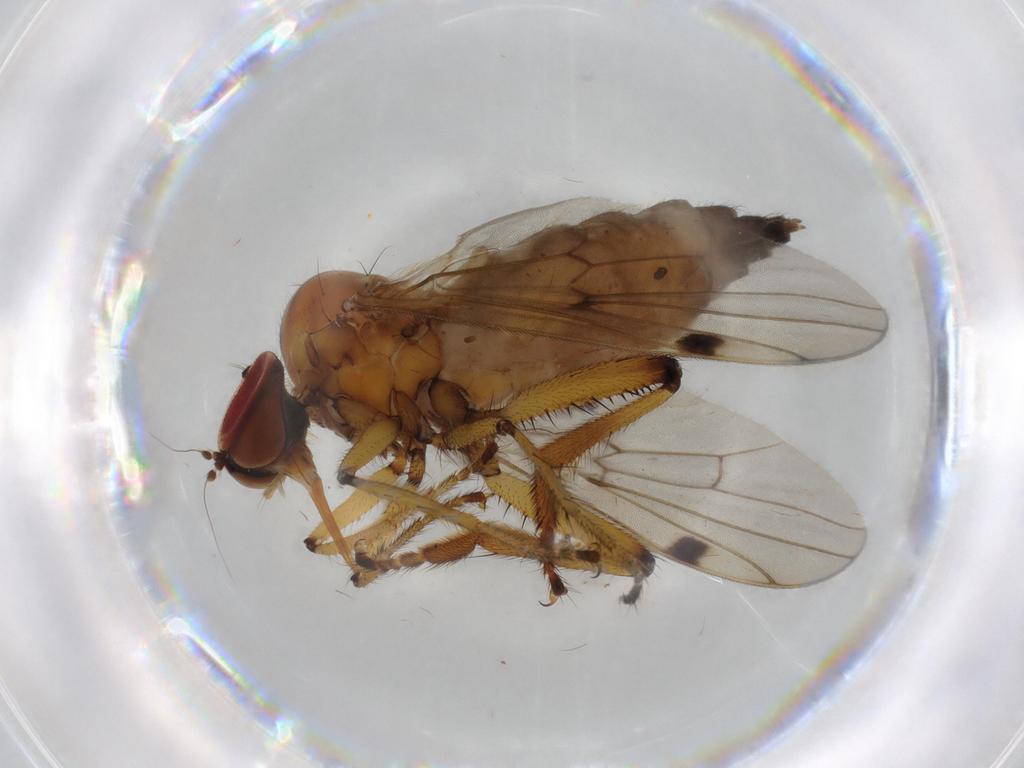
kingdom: Animalia
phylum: Arthropoda
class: Insecta
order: Diptera
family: Hybotidae
